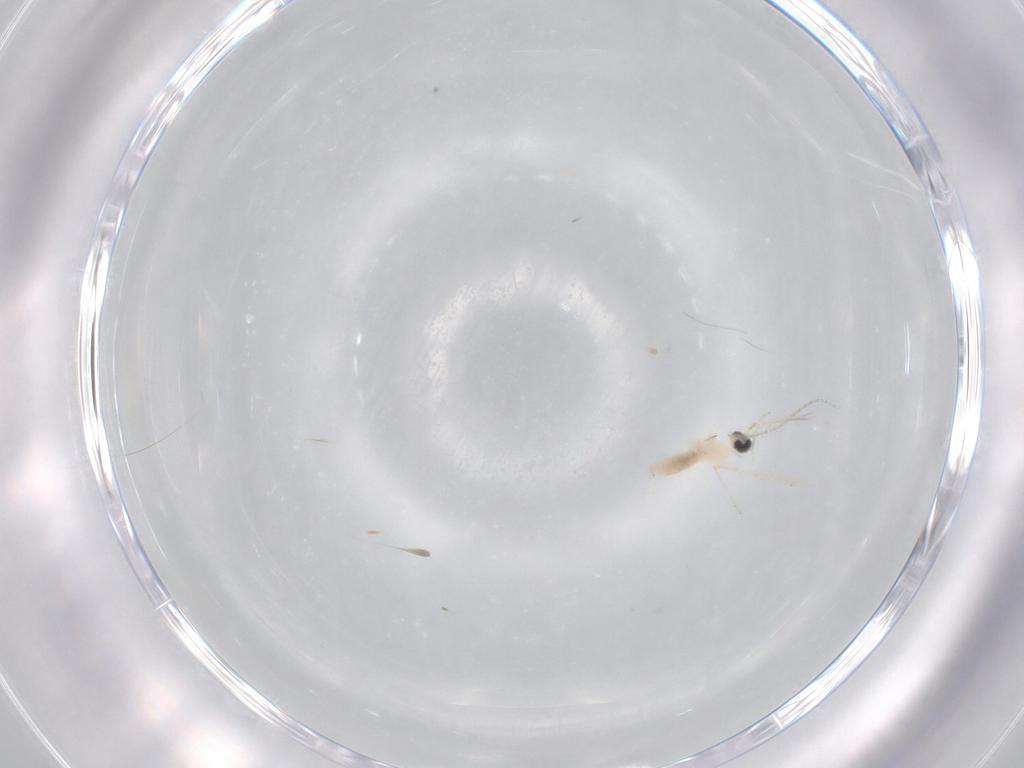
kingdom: Animalia
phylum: Arthropoda
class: Insecta
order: Diptera
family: Cecidomyiidae
